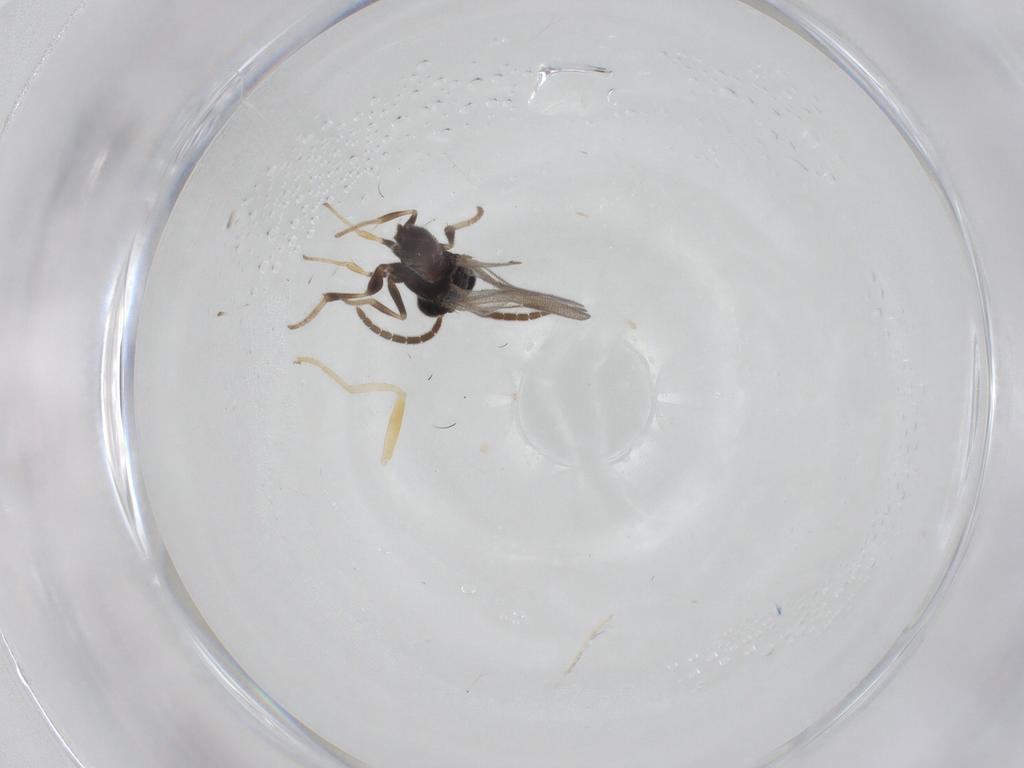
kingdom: Animalia
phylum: Arthropoda
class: Insecta
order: Hymenoptera
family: Dryinidae
